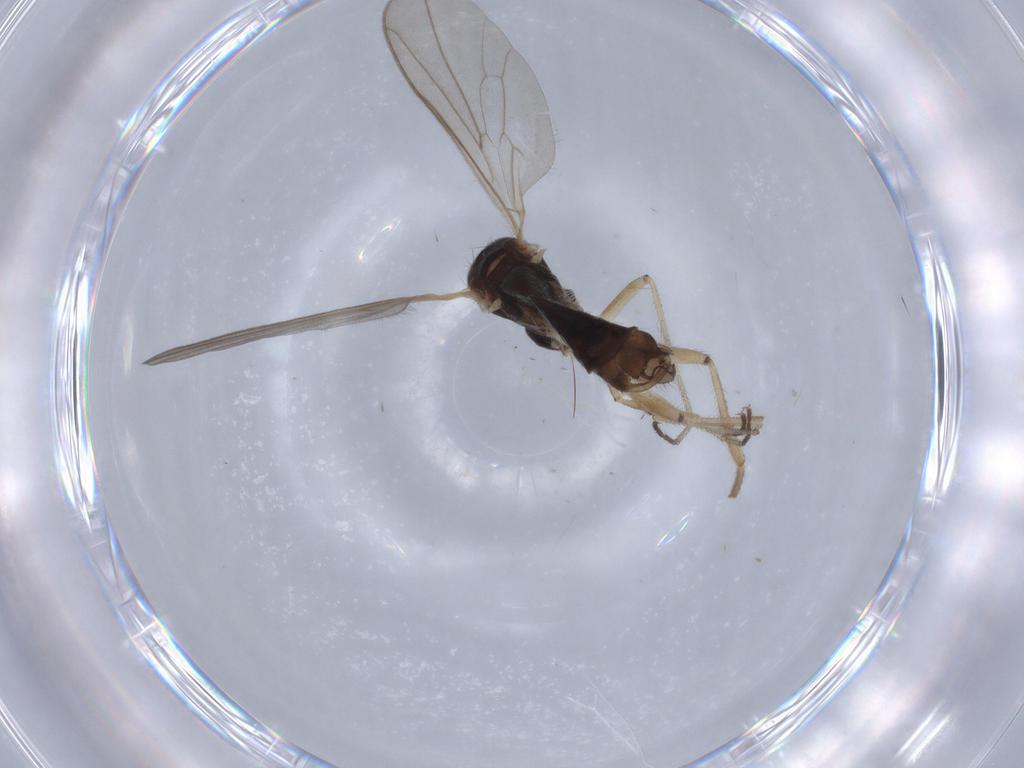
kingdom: Animalia
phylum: Arthropoda
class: Insecta
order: Diptera
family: Hybotidae
